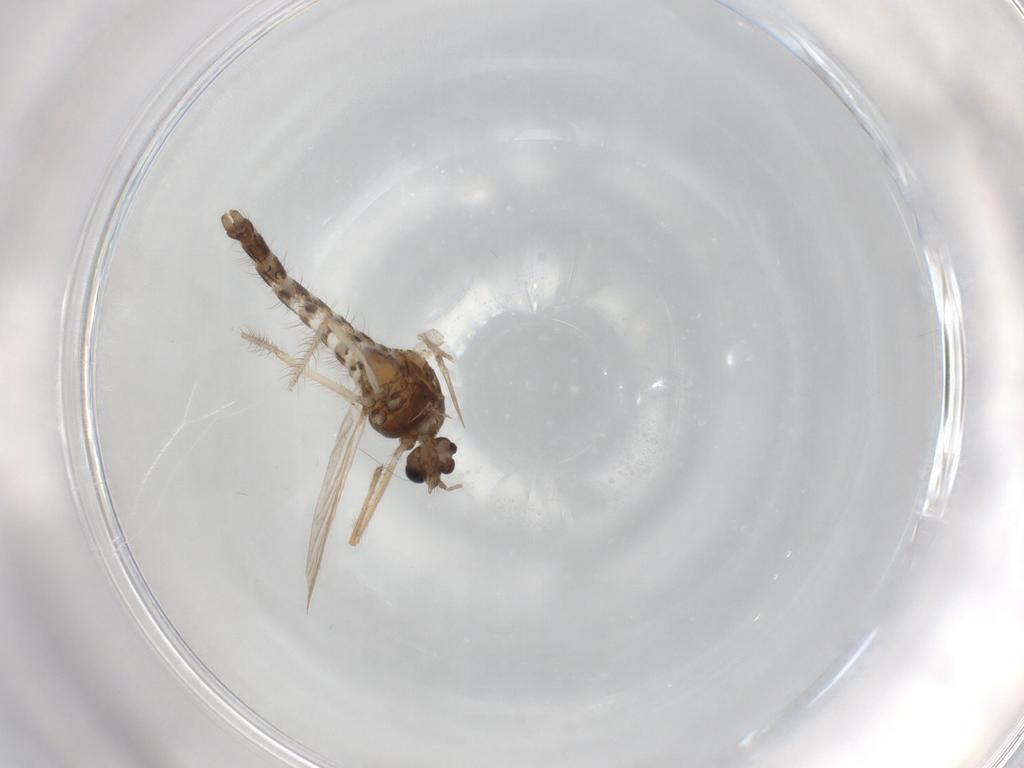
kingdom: Animalia
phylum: Arthropoda
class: Insecta
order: Diptera
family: Chironomidae
